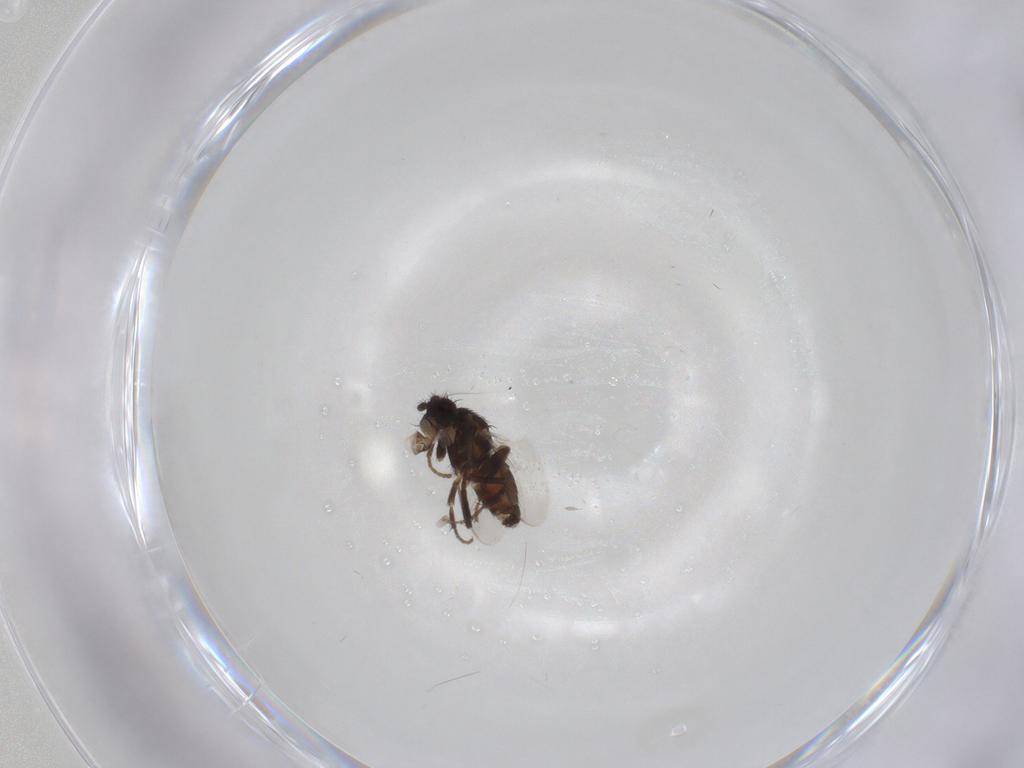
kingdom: Animalia
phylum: Arthropoda
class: Insecta
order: Diptera
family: Sphaeroceridae
